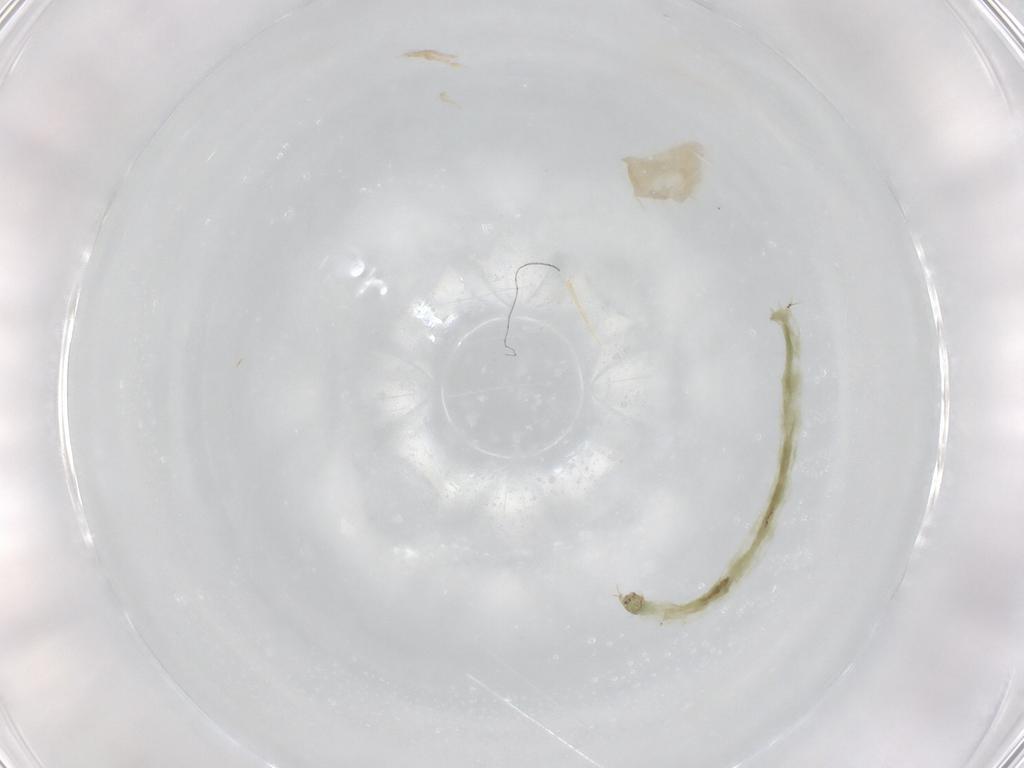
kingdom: Animalia
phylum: Arthropoda
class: Insecta
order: Diptera
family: Chironomidae
